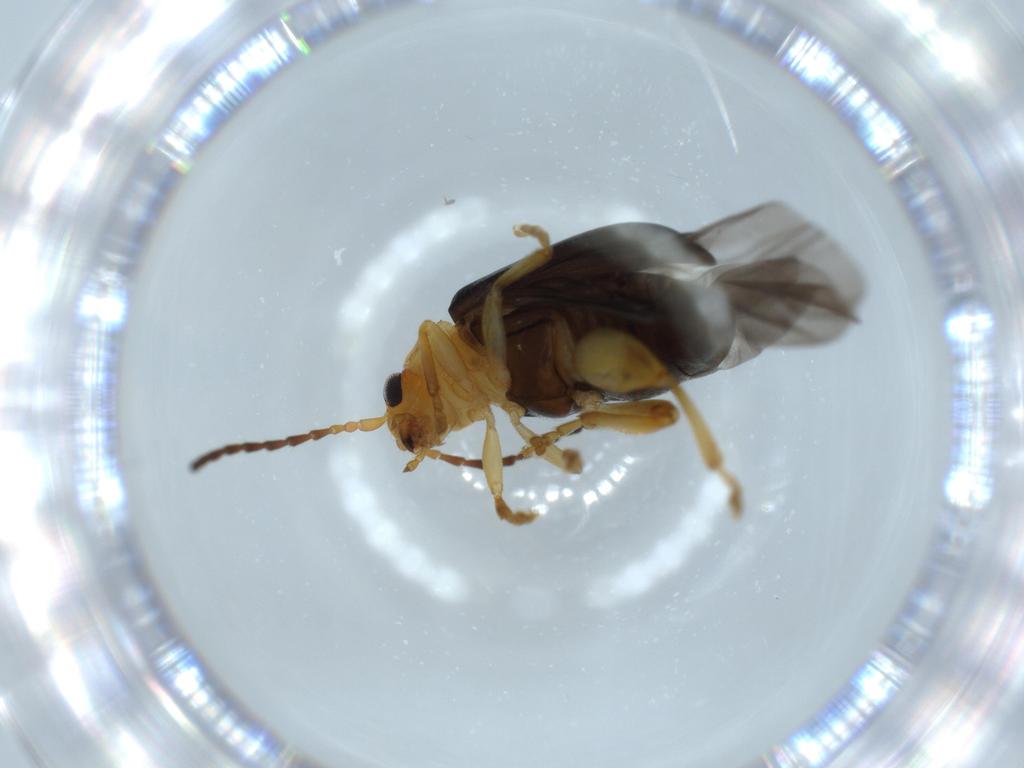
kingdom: Animalia
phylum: Arthropoda
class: Insecta
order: Coleoptera
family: Chrysomelidae
